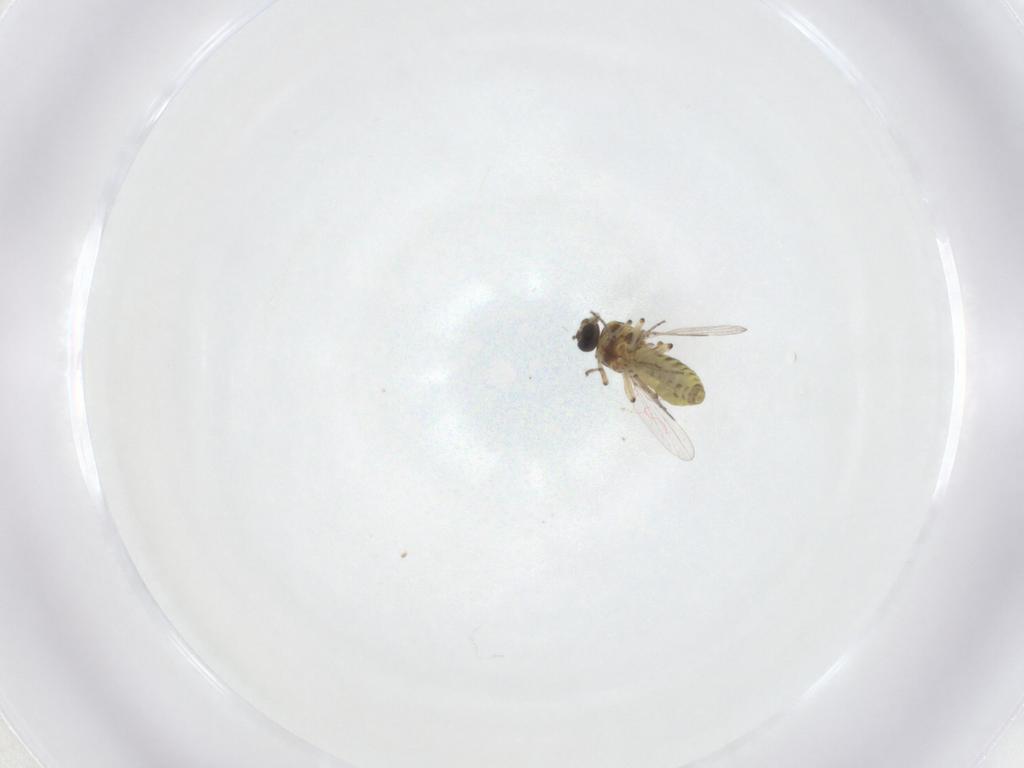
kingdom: Animalia
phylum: Arthropoda
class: Insecta
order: Diptera
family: Ceratopogonidae
